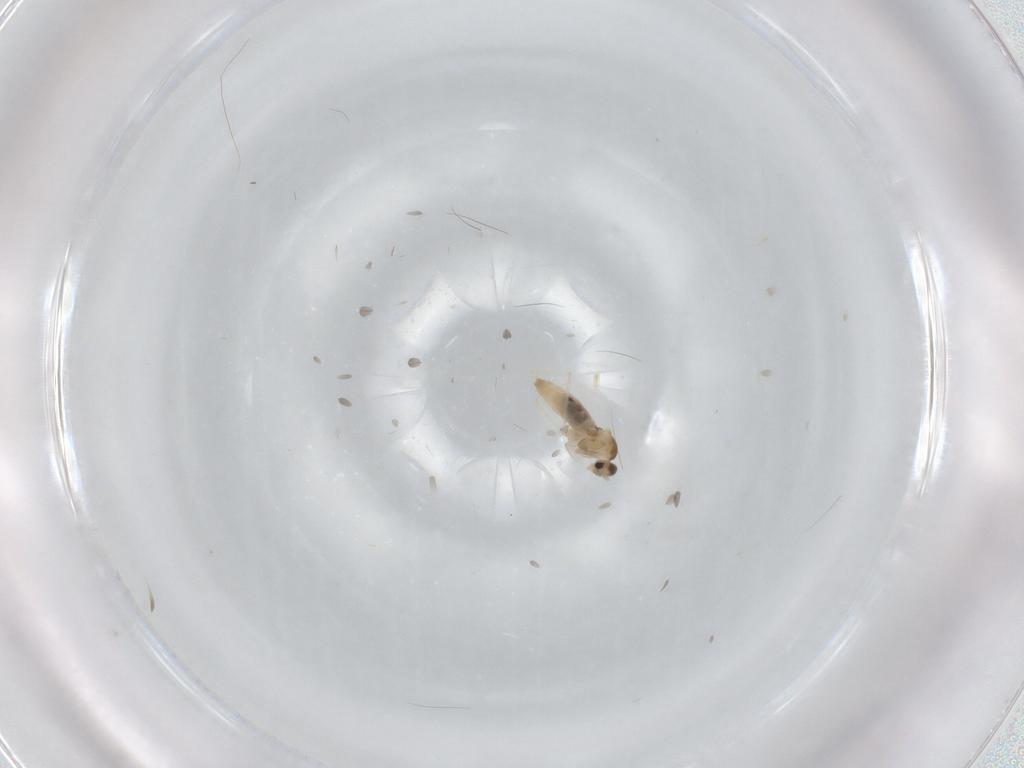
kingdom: Animalia
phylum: Arthropoda
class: Insecta
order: Diptera
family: Cecidomyiidae
